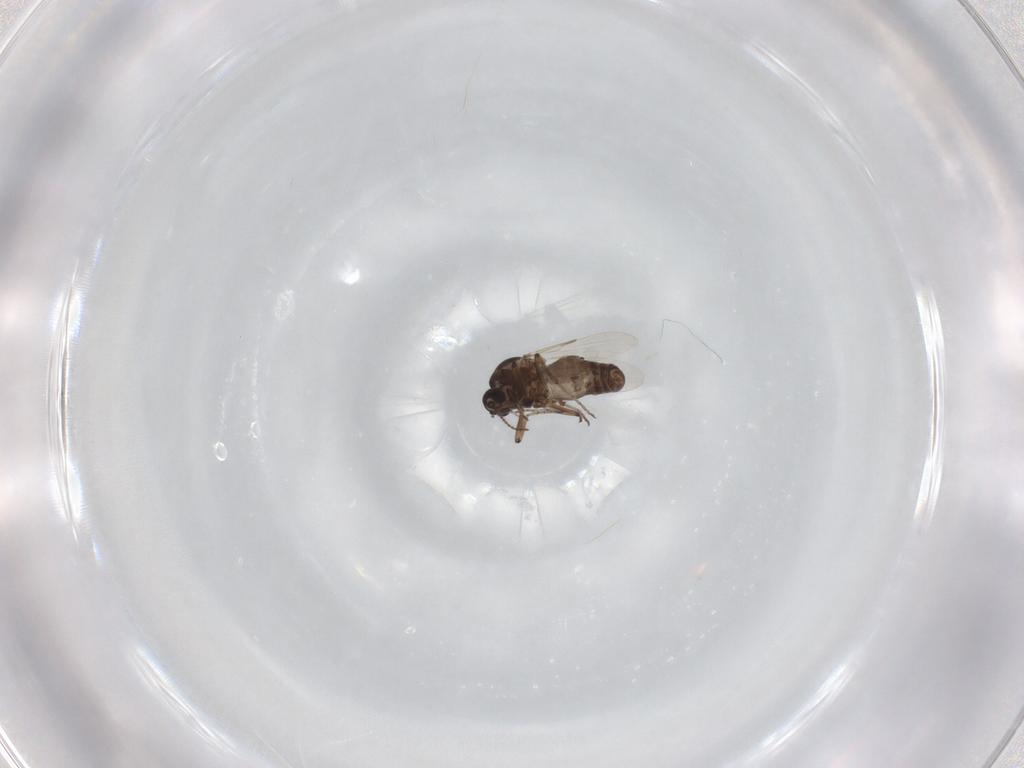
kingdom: Animalia
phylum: Arthropoda
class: Insecta
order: Diptera
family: Ceratopogonidae
